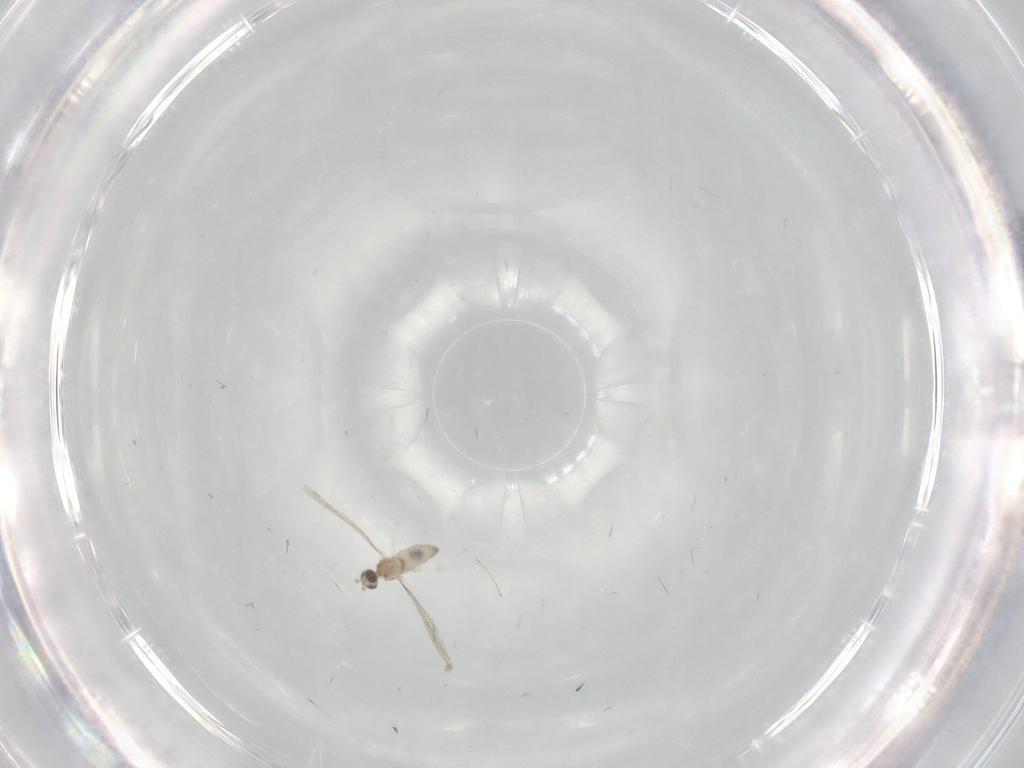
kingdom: Animalia
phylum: Arthropoda
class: Insecta
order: Diptera
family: Cecidomyiidae
